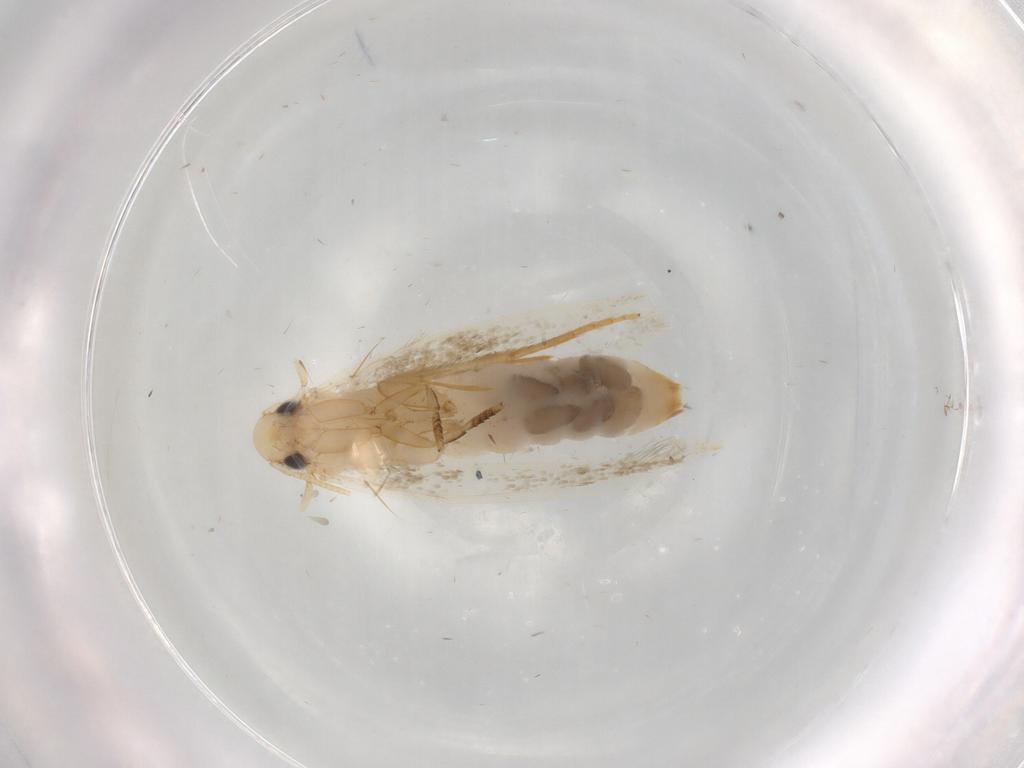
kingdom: Animalia
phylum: Arthropoda
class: Insecta
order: Lepidoptera
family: Tineidae
